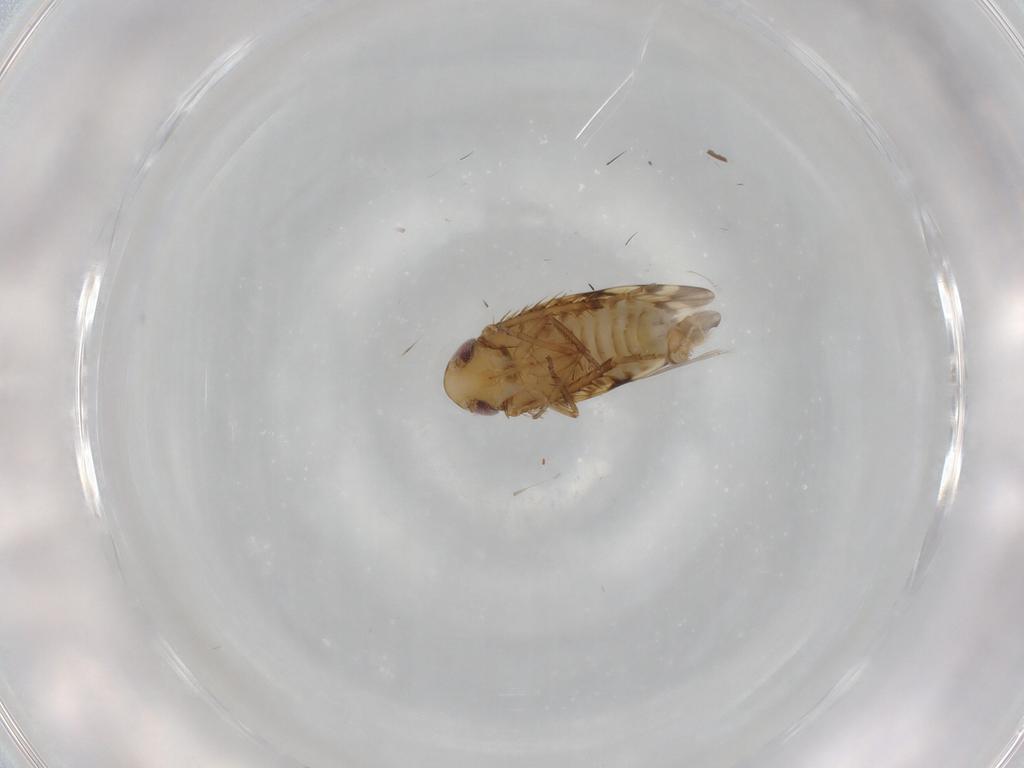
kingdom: Animalia
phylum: Arthropoda
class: Insecta
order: Hemiptera
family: Cicadellidae
